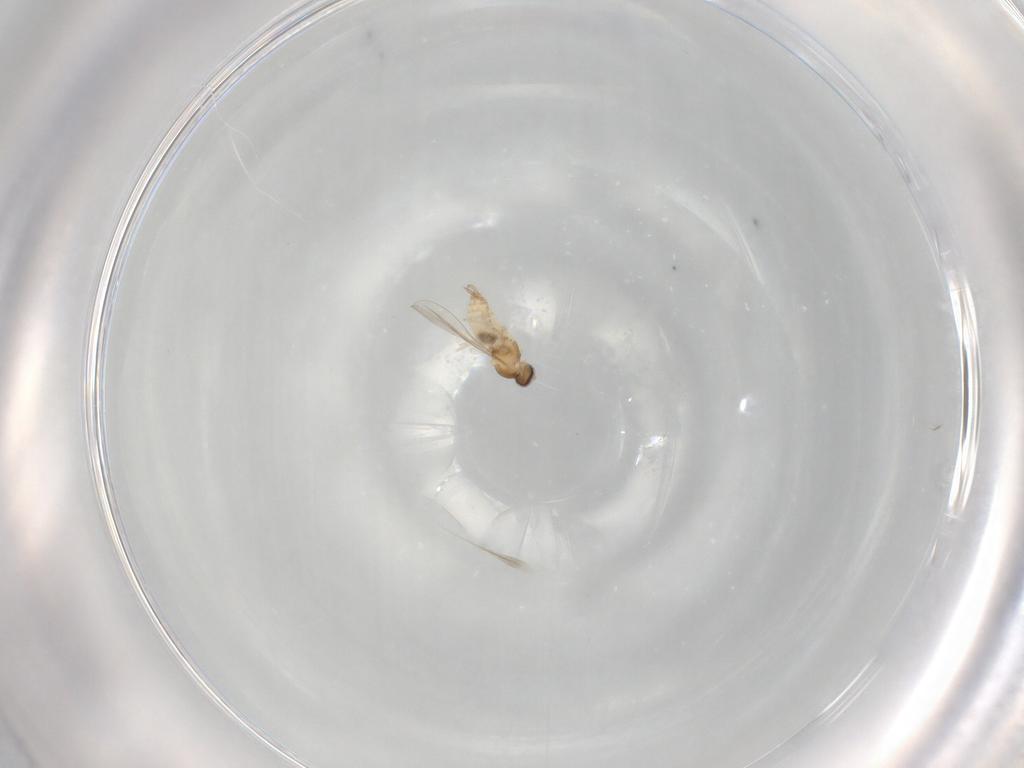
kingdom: Animalia
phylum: Arthropoda
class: Insecta
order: Diptera
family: Cecidomyiidae
